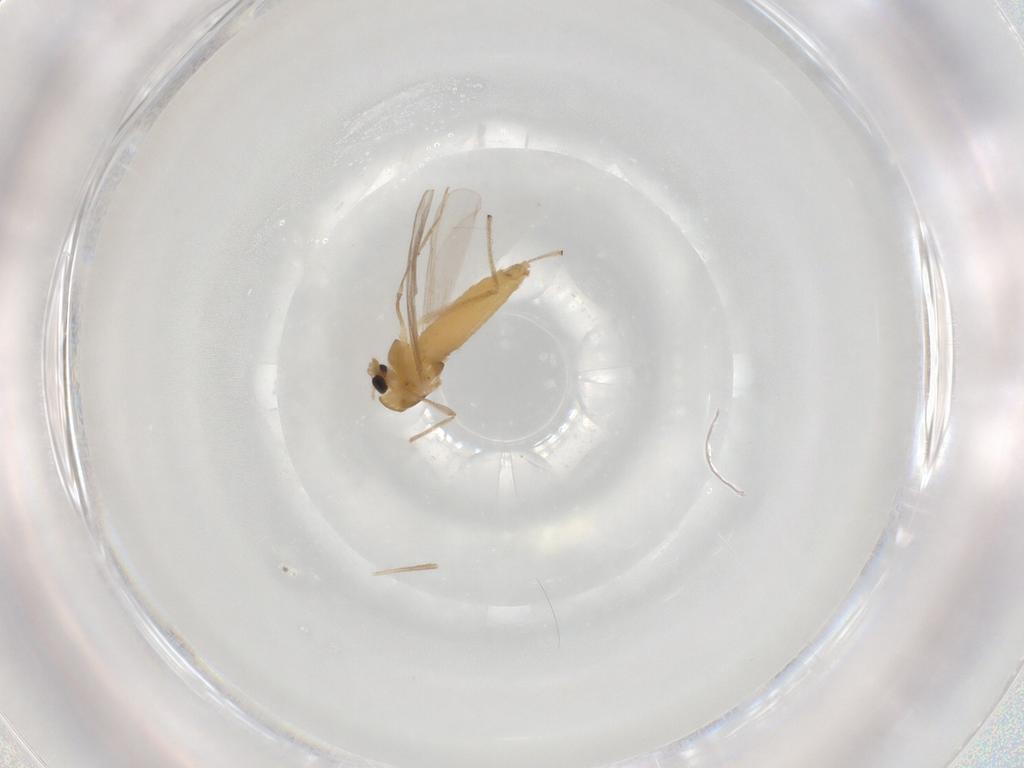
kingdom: Animalia
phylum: Arthropoda
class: Insecta
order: Diptera
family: Chironomidae
